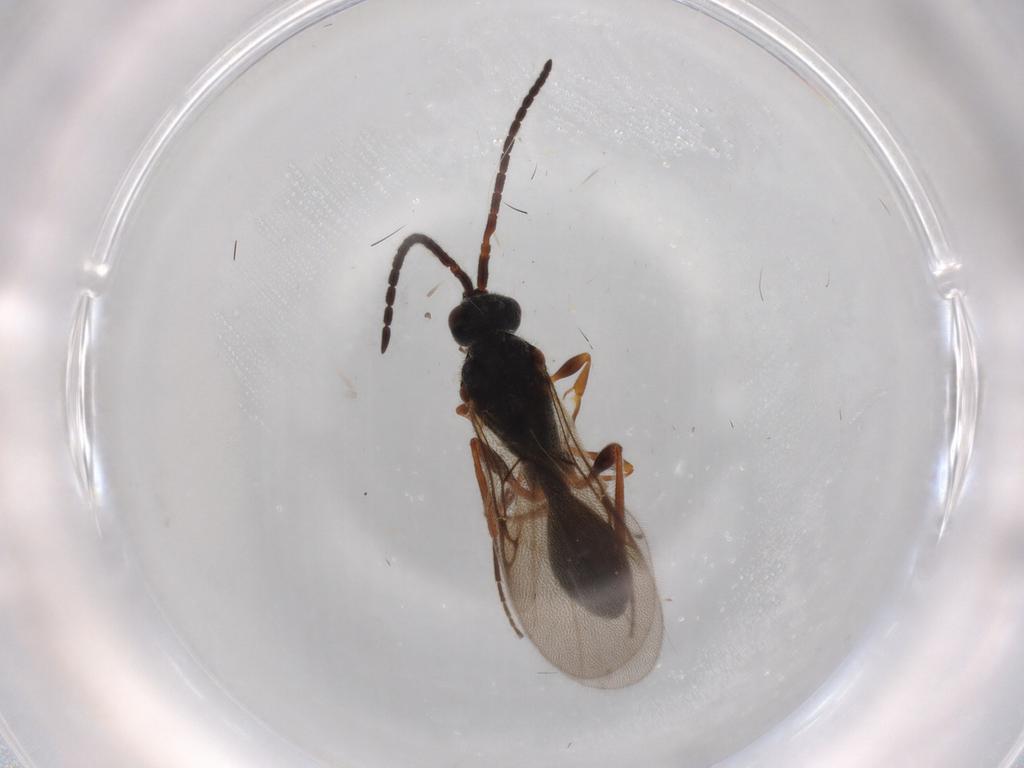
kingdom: Animalia
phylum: Arthropoda
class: Insecta
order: Hymenoptera
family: Diapriidae
